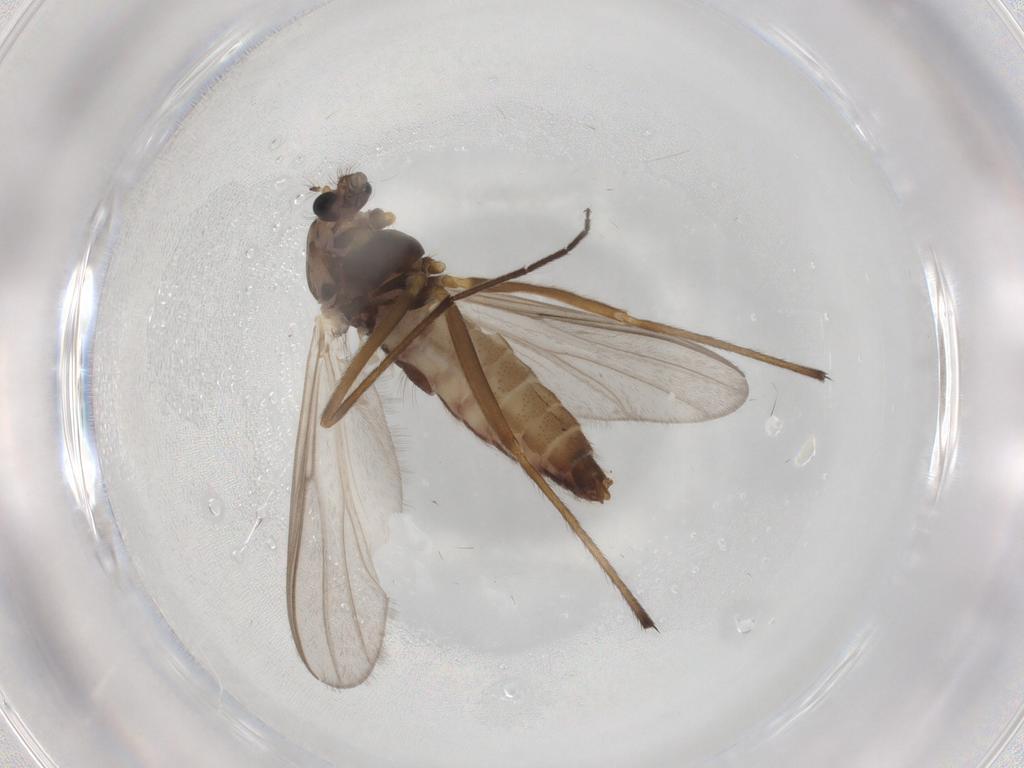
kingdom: Animalia
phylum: Arthropoda
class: Insecta
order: Diptera
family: Chironomidae
